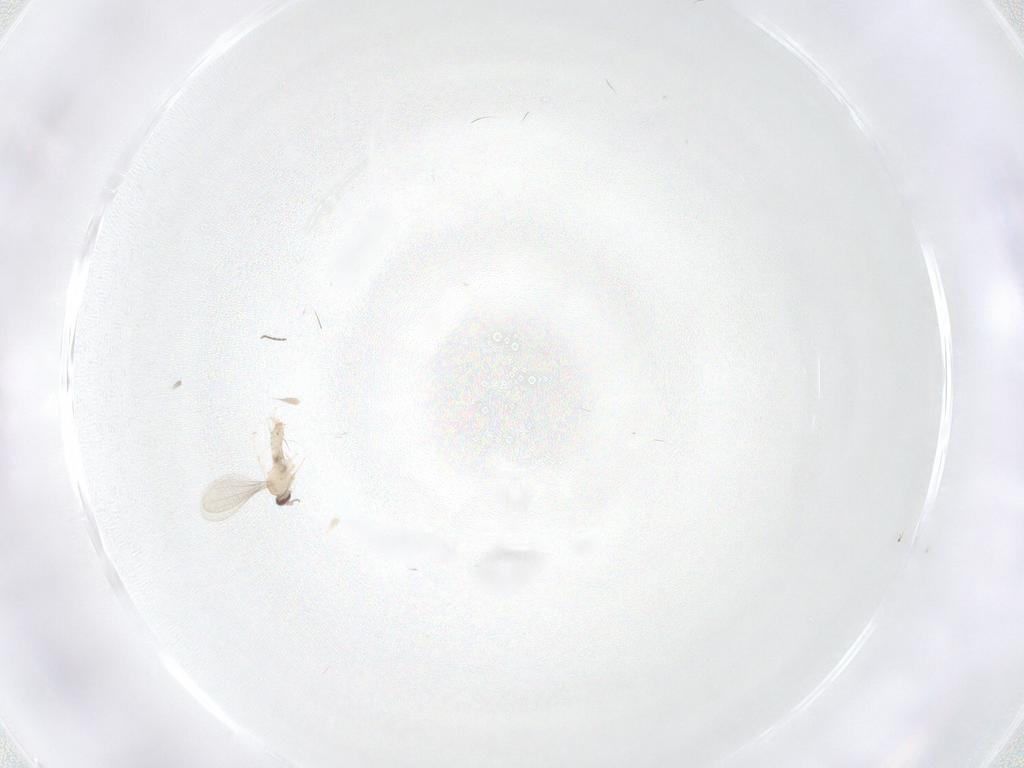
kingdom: Animalia
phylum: Arthropoda
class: Insecta
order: Diptera
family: Cecidomyiidae
